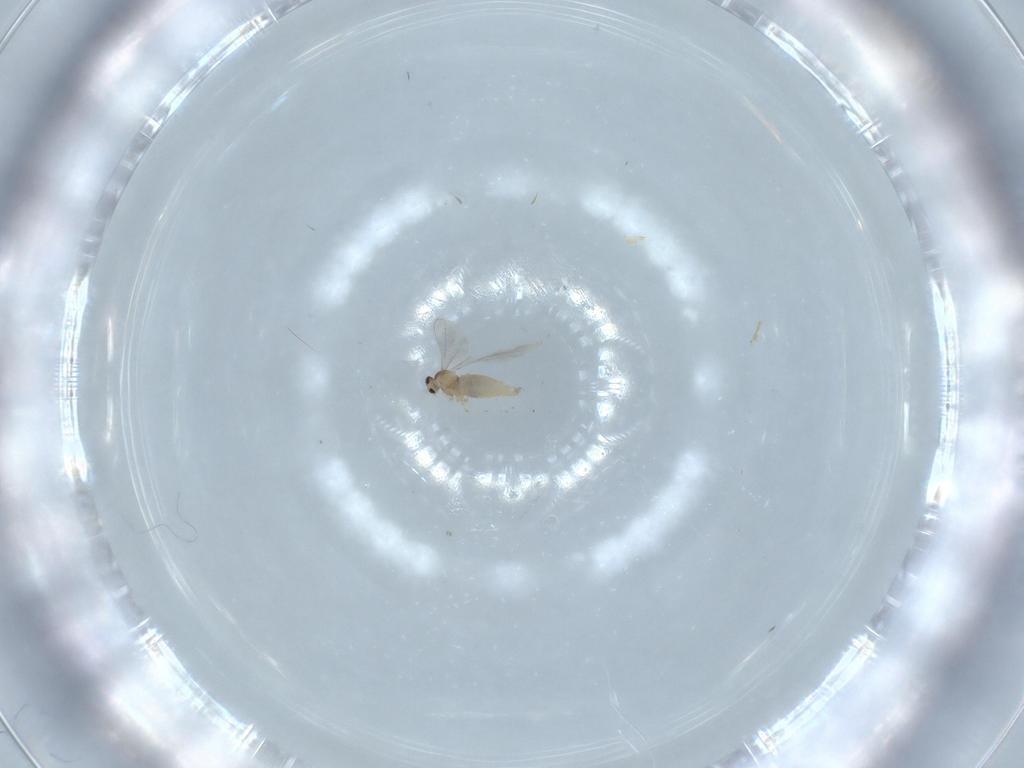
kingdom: Animalia
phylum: Arthropoda
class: Insecta
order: Diptera
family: Cecidomyiidae
